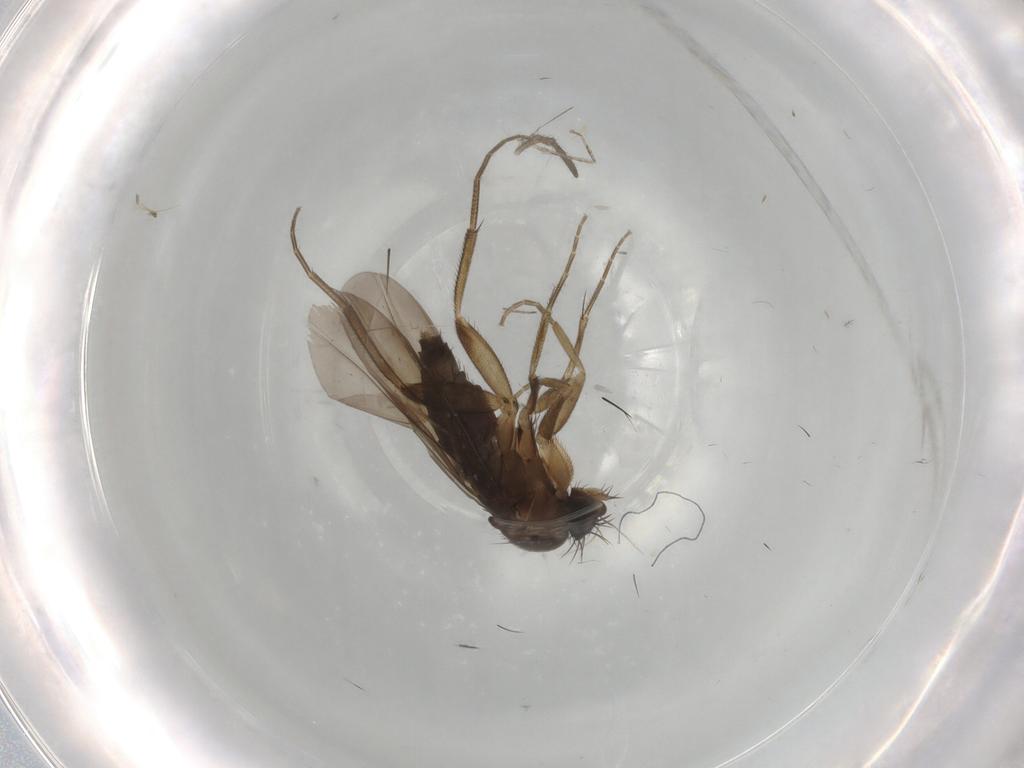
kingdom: Animalia
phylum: Arthropoda
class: Insecta
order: Diptera
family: Phoridae
